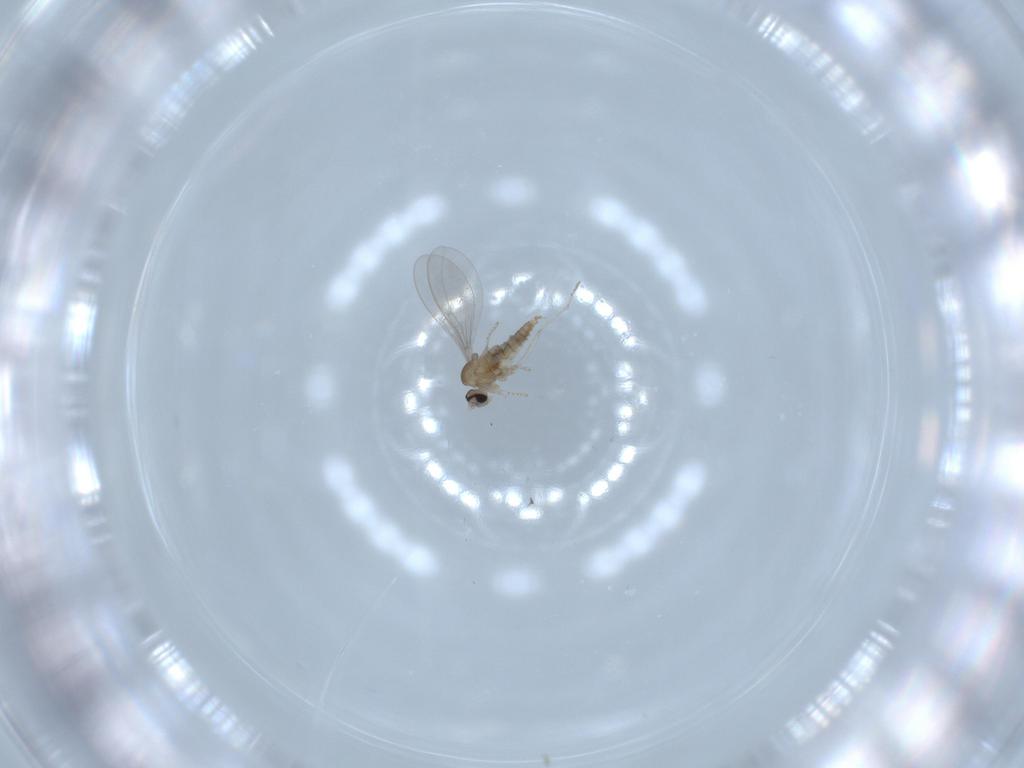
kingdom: Animalia
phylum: Arthropoda
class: Insecta
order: Diptera
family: Cecidomyiidae
